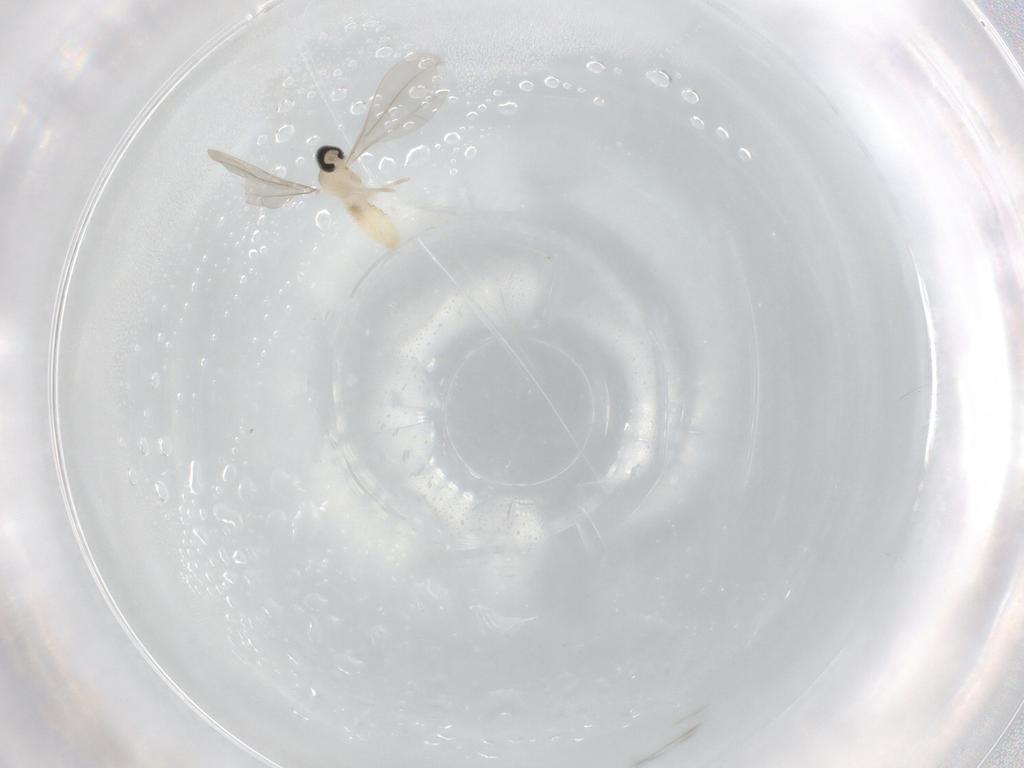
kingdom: Animalia
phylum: Arthropoda
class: Insecta
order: Diptera
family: Cecidomyiidae
